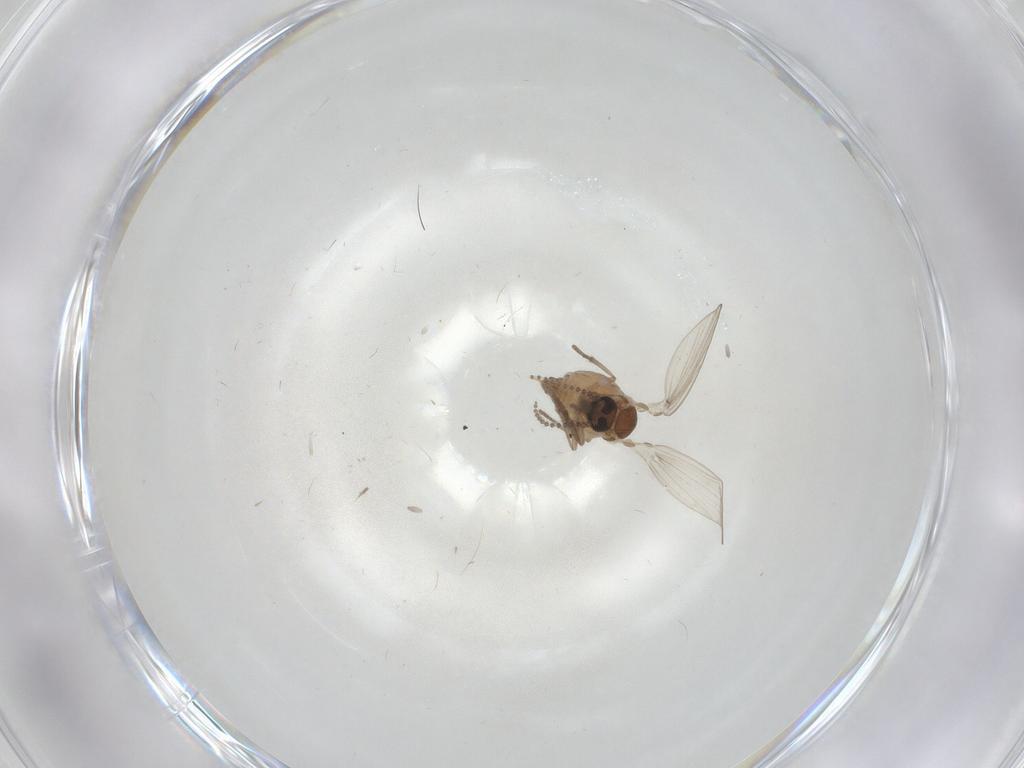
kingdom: Animalia
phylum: Arthropoda
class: Insecta
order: Diptera
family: Psychodidae
